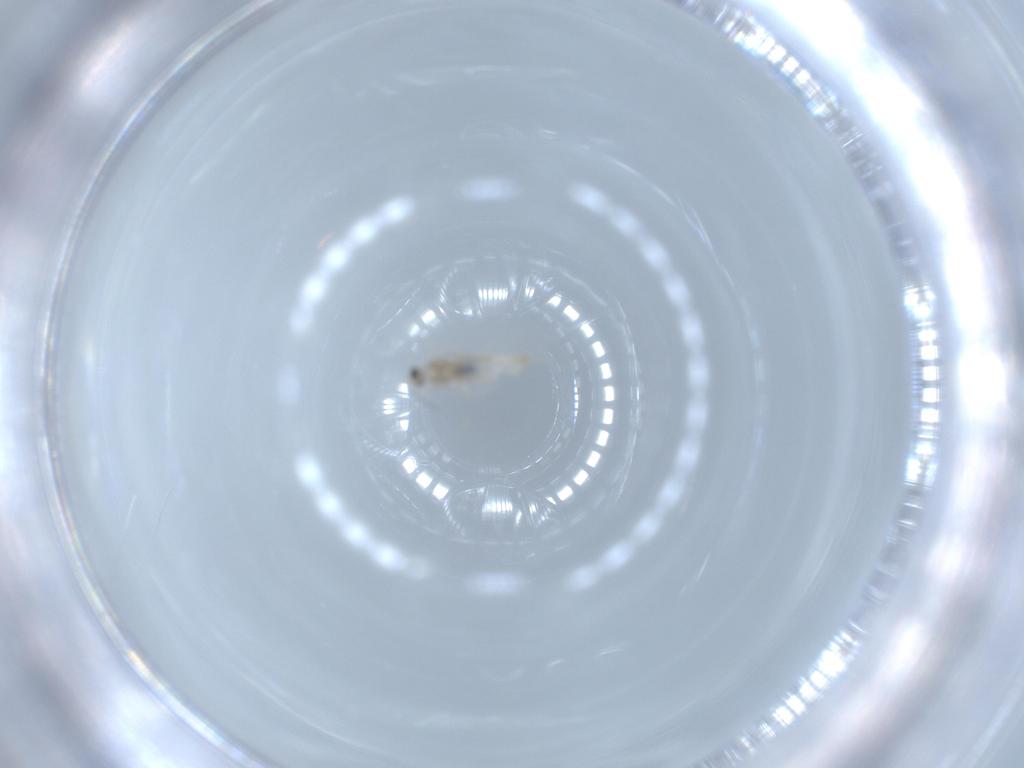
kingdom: Animalia
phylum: Arthropoda
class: Insecta
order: Diptera
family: Cecidomyiidae
